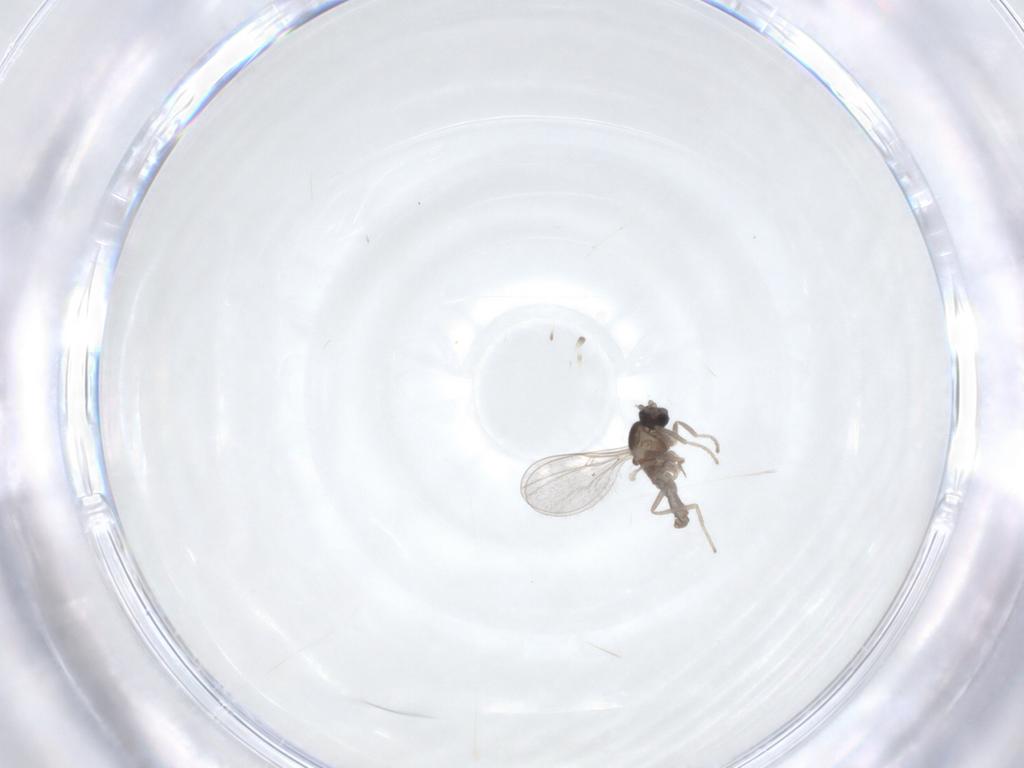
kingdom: Animalia
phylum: Arthropoda
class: Insecta
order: Diptera
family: Cecidomyiidae
